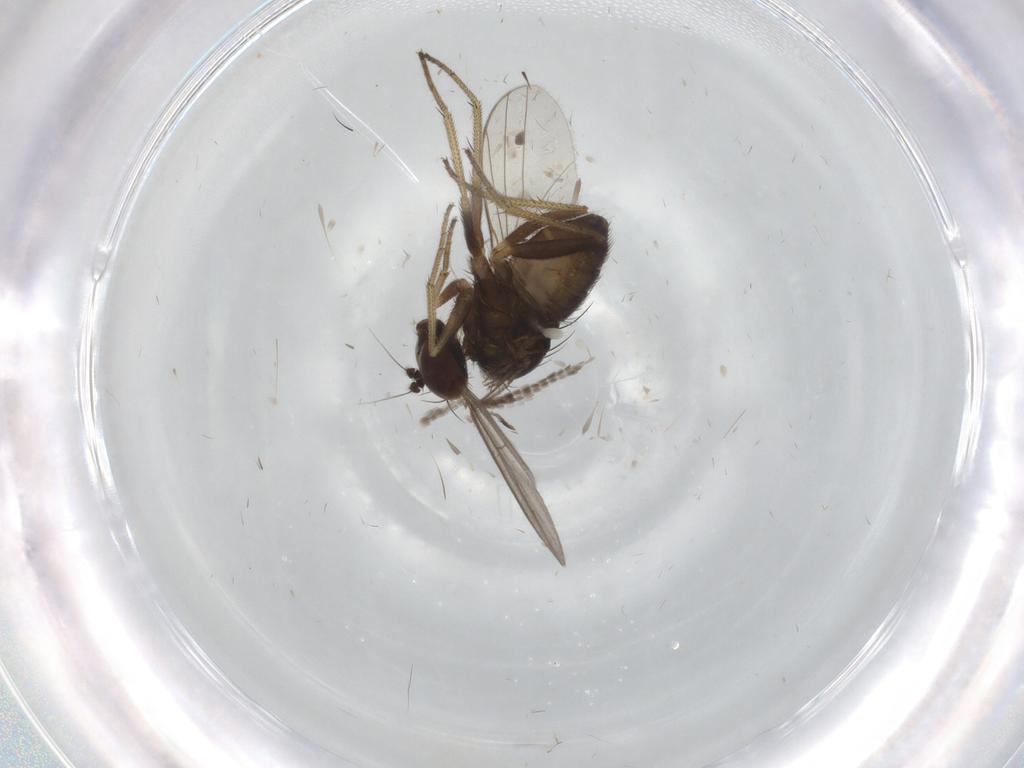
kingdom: Animalia
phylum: Arthropoda
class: Insecta
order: Diptera
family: Dolichopodidae
